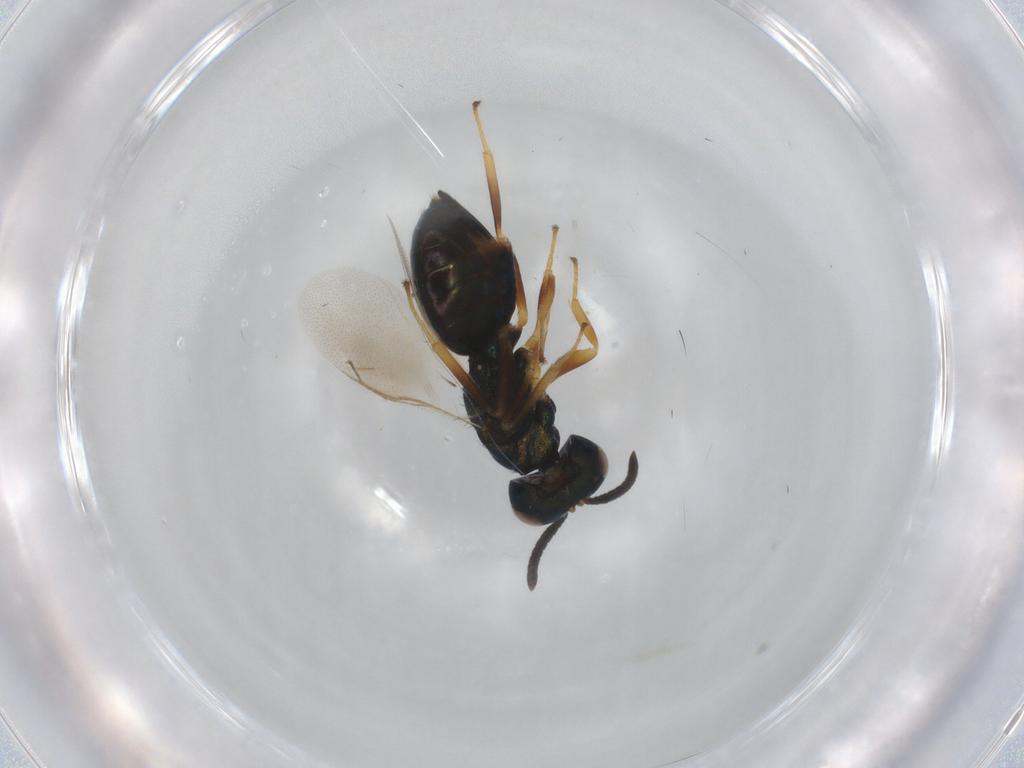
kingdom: Animalia
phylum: Arthropoda
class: Insecta
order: Hymenoptera
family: Pteromalidae
